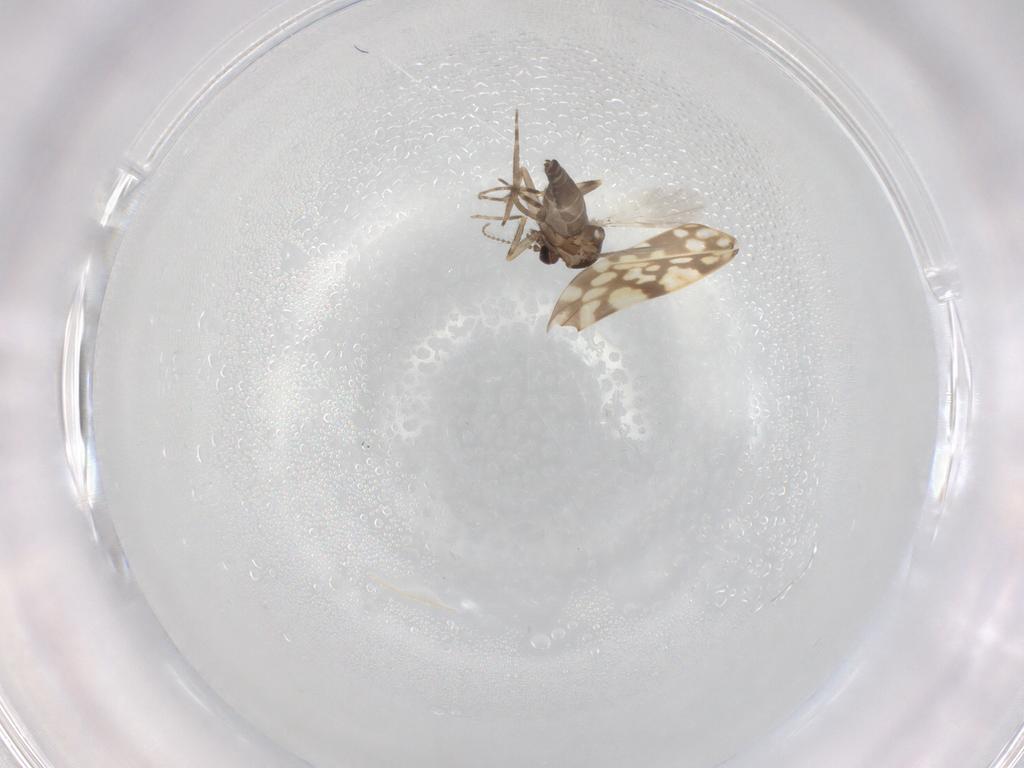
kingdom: Animalia
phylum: Arthropoda
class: Insecta
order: Diptera
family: Ceratopogonidae
